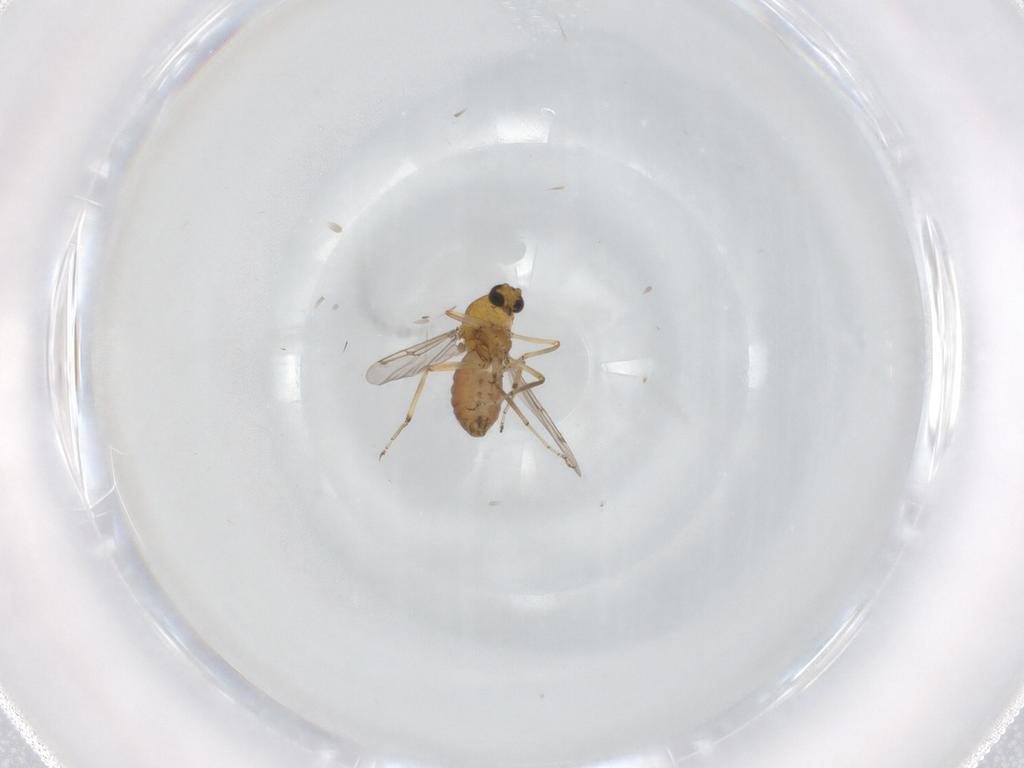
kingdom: Animalia
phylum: Arthropoda
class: Insecta
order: Diptera
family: Chironomidae
